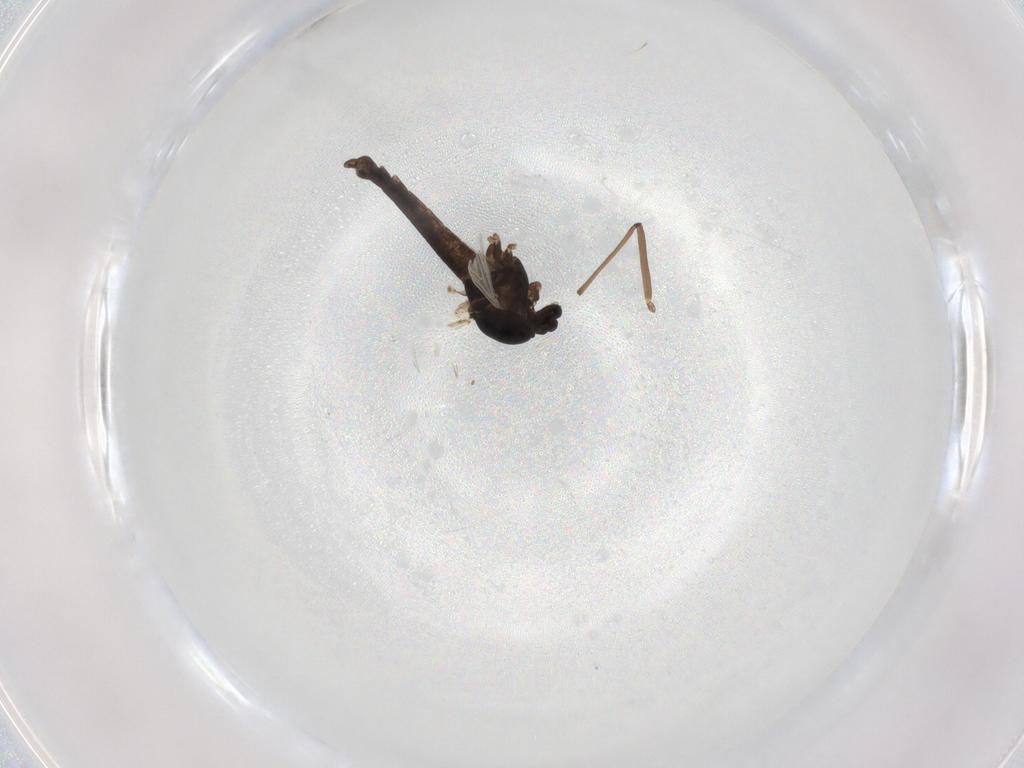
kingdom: Animalia
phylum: Arthropoda
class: Insecta
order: Diptera
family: Chironomidae
